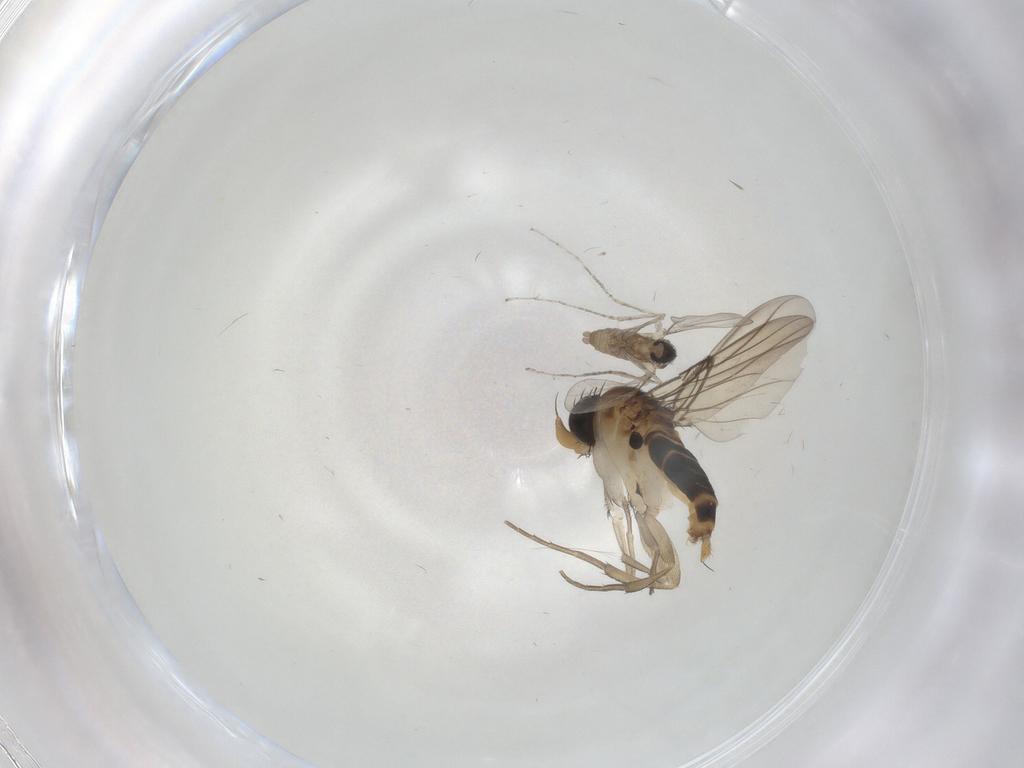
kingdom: Animalia
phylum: Arthropoda
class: Insecta
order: Diptera
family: Cecidomyiidae
